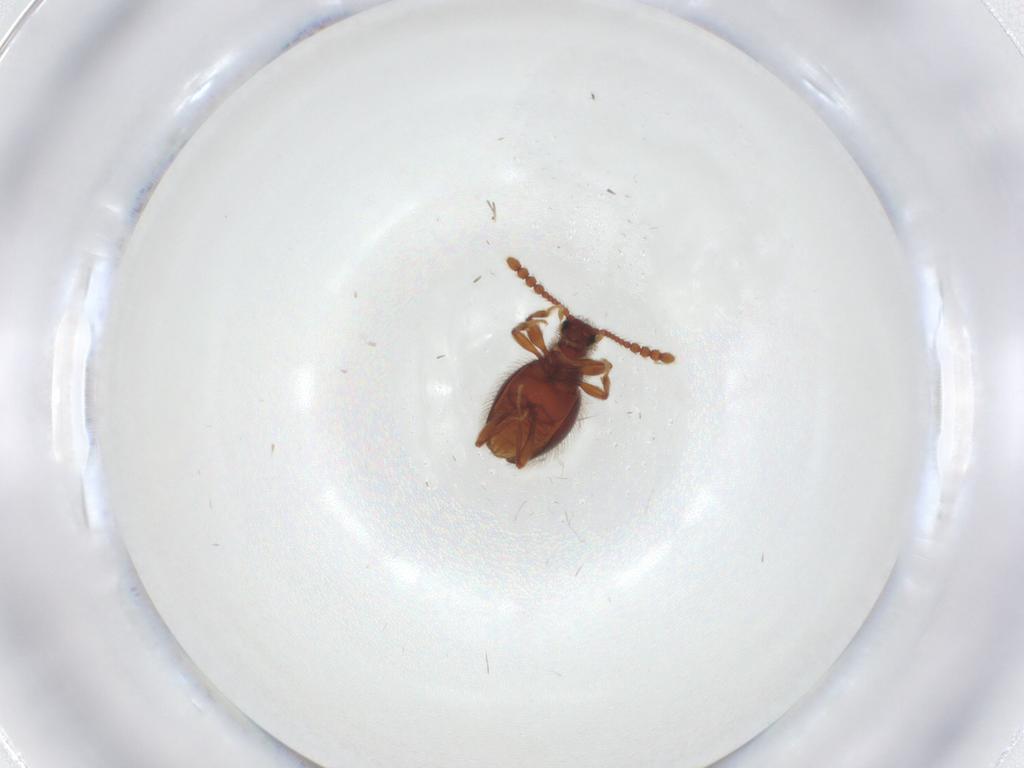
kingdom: Animalia
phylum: Arthropoda
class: Insecta
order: Coleoptera
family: Staphylinidae
